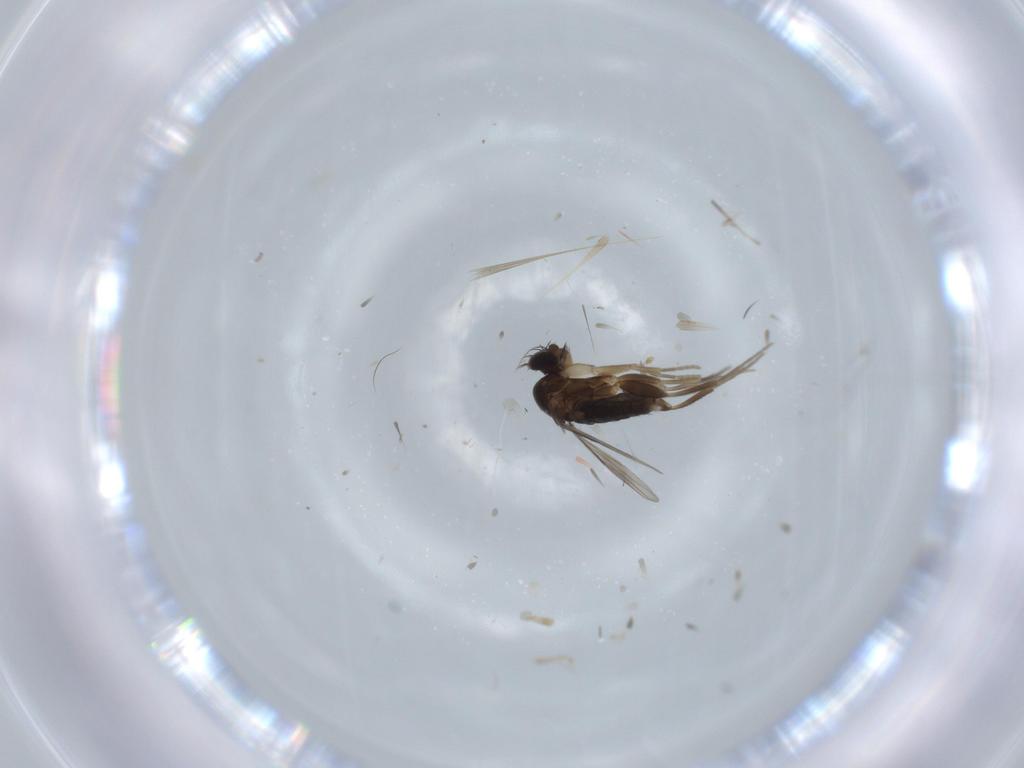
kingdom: Animalia
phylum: Arthropoda
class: Insecta
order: Diptera
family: Phoridae
